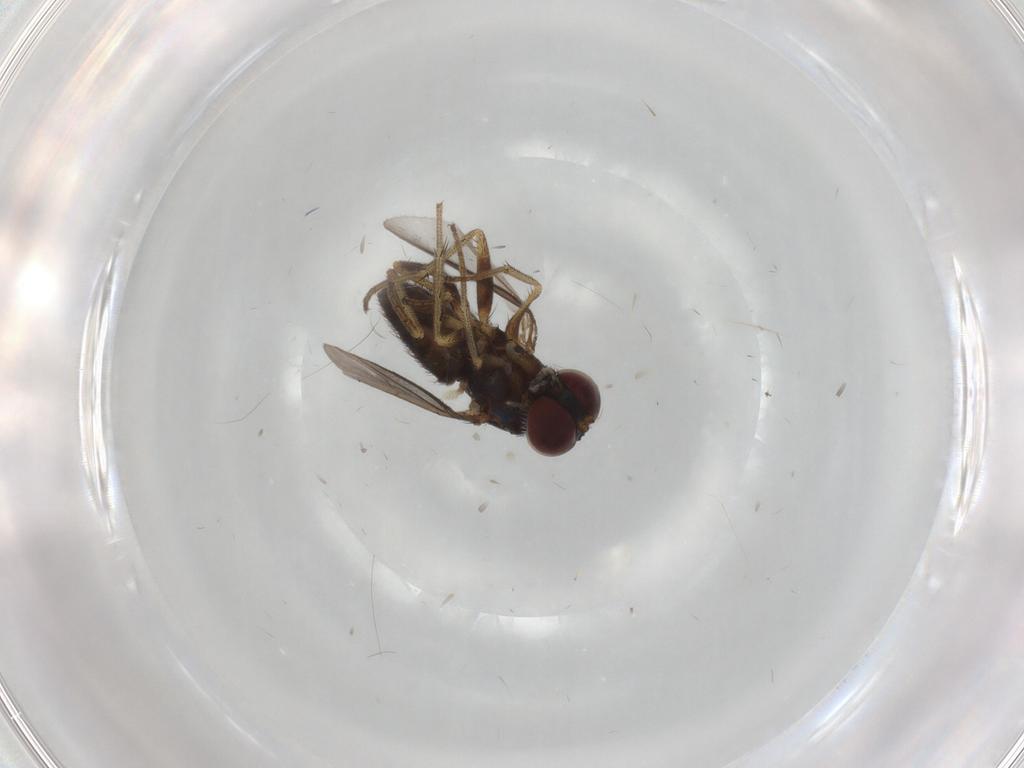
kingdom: Animalia
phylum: Arthropoda
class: Insecta
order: Diptera
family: Dolichopodidae
